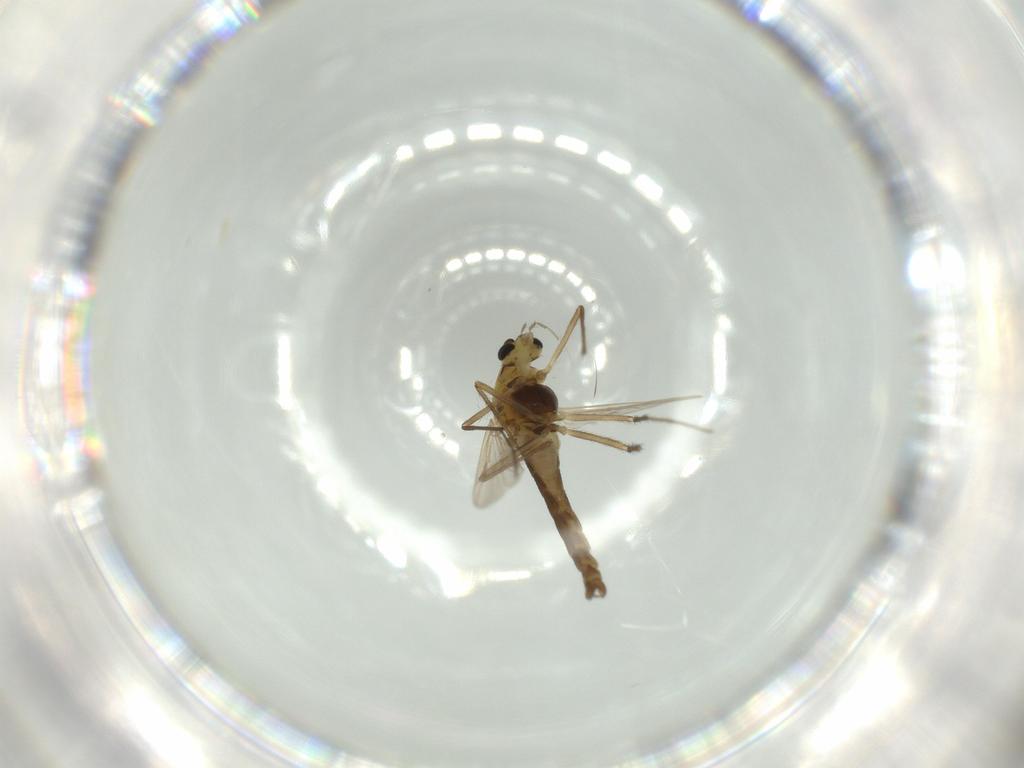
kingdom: Animalia
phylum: Arthropoda
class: Insecta
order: Diptera
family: Chironomidae
